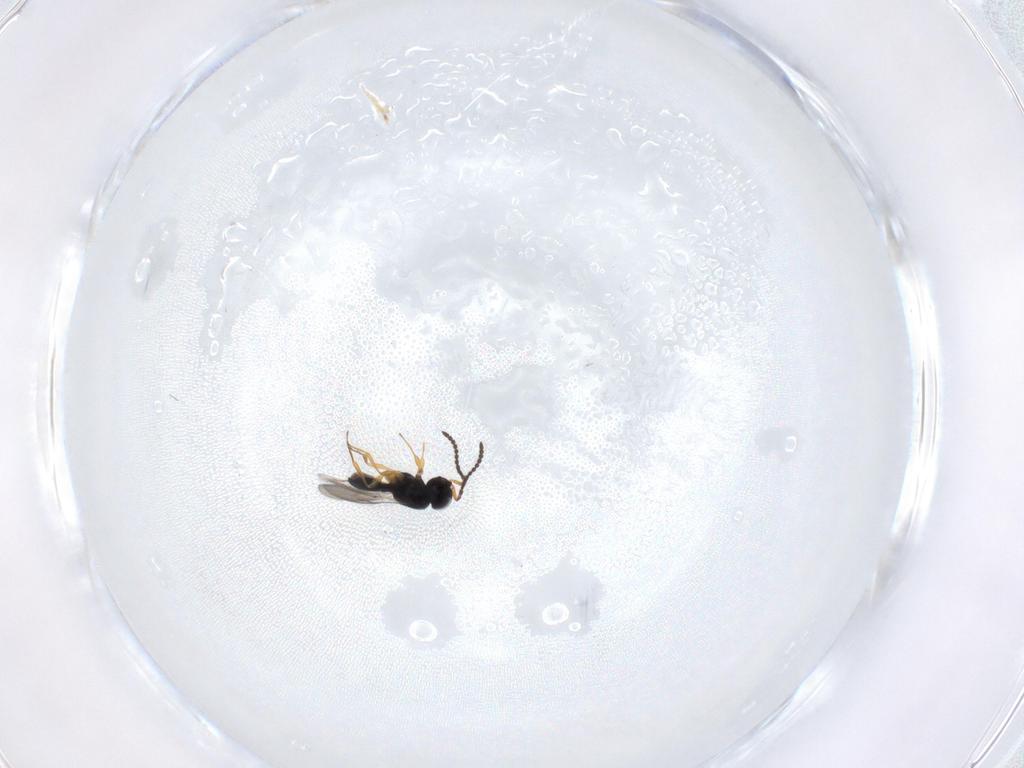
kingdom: Animalia
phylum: Arthropoda
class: Insecta
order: Hymenoptera
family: Scelionidae
